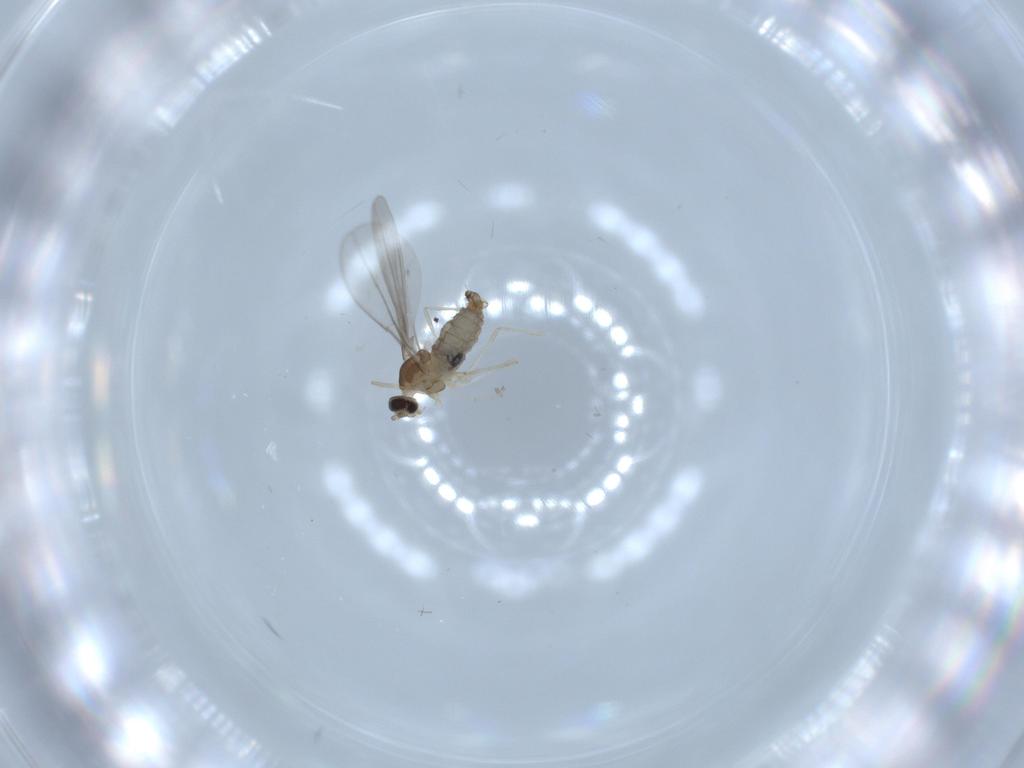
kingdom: Animalia
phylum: Arthropoda
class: Insecta
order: Diptera
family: Cecidomyiidae
